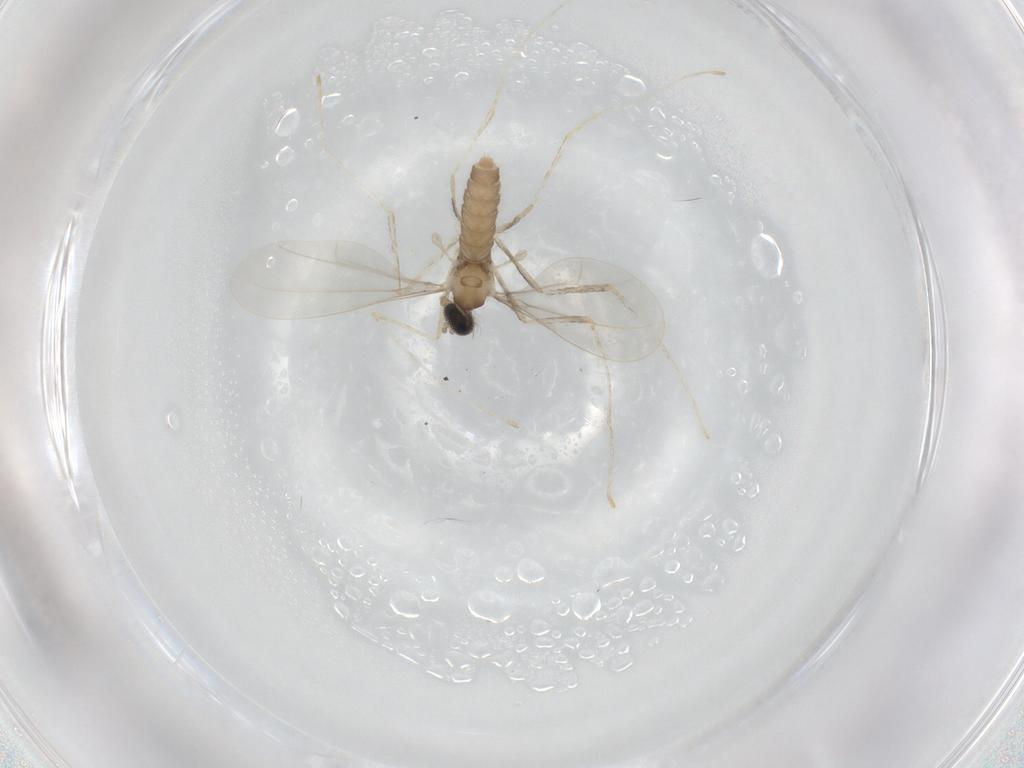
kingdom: Animalia
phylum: Arthropoda
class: Insecta
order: Diptera
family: Cecidomyiidae
